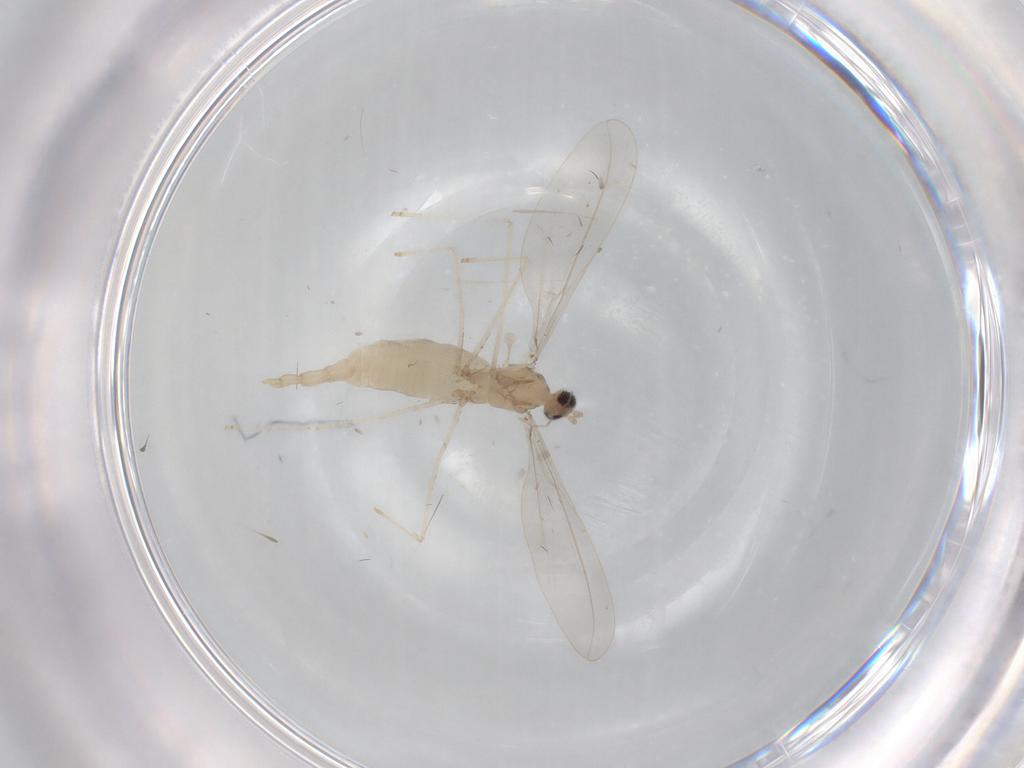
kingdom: Animalia
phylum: Arthropoda
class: Insecta
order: Diptera
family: Cecidomyiidae
